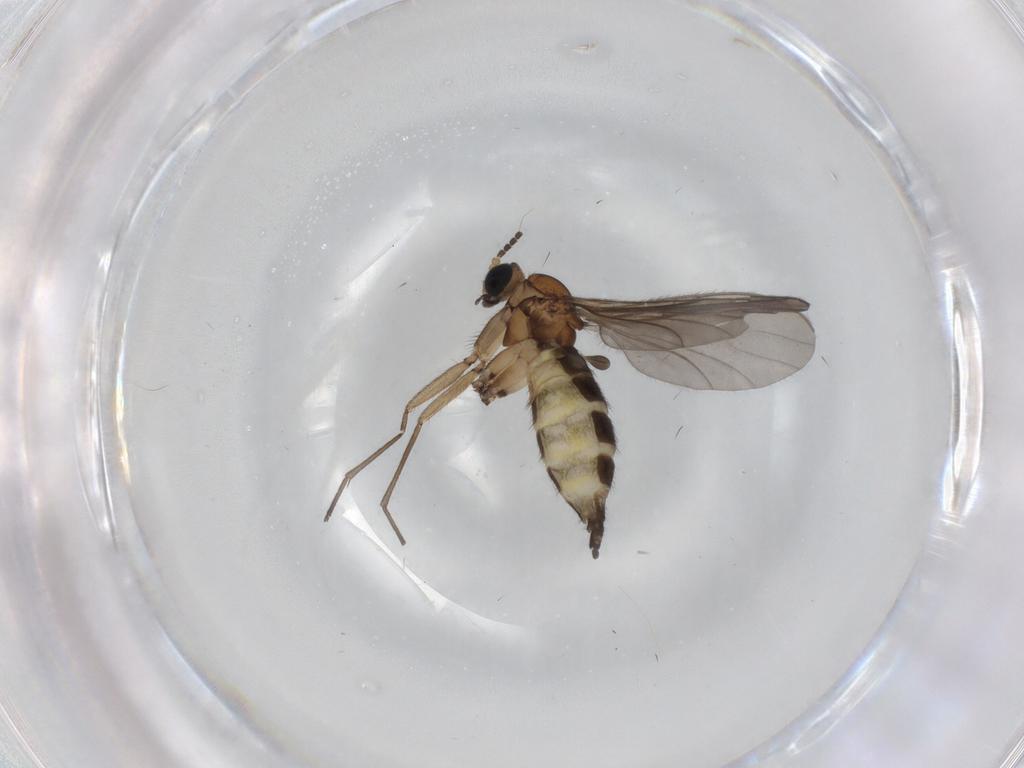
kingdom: Animalia
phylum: Arthropoda
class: Insecta
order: Diptera
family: Sciaridae
